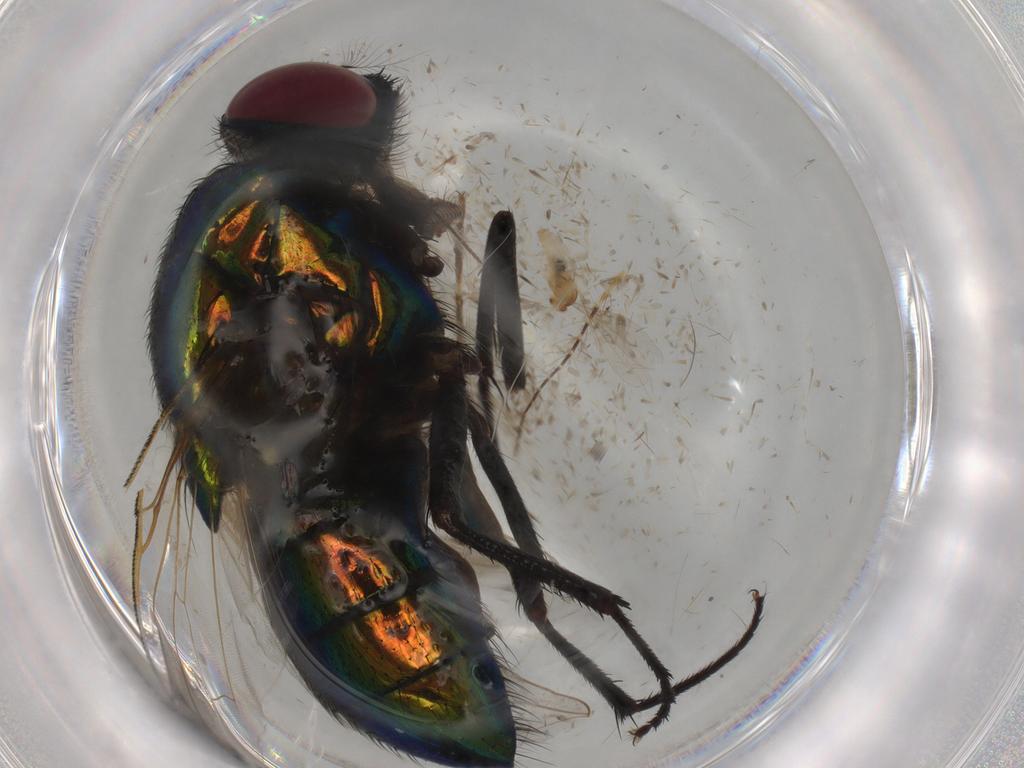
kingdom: Animalia
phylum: Arthropoda
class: Insecta
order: Diptera
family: Muscidae
